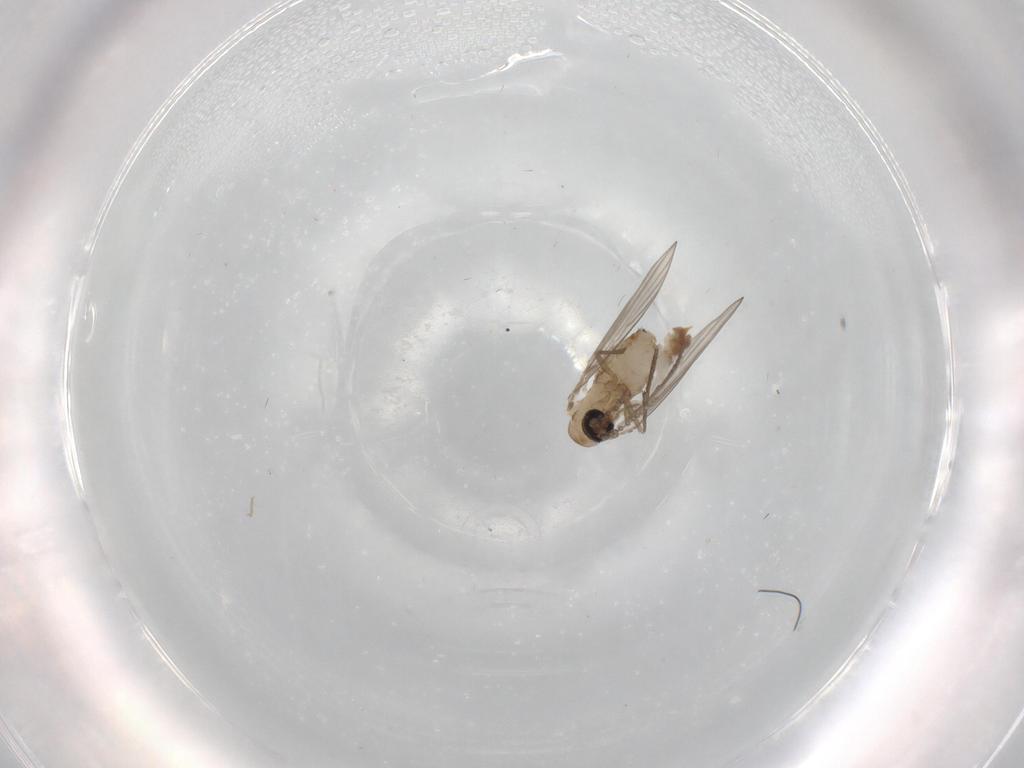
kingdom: Animalia
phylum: Arthropoda
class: Insecta
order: Diptera
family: Psychodidae
